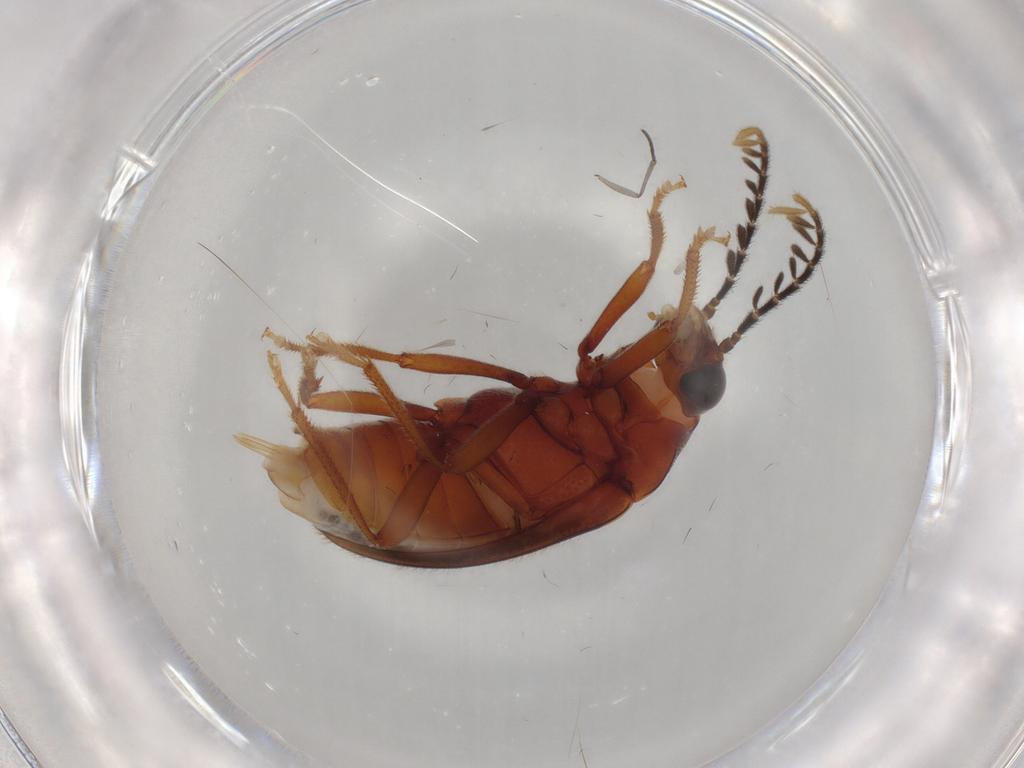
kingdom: Animalia
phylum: Arthropoda
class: Insecta
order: Coleoptera
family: Ptilodactylidae
